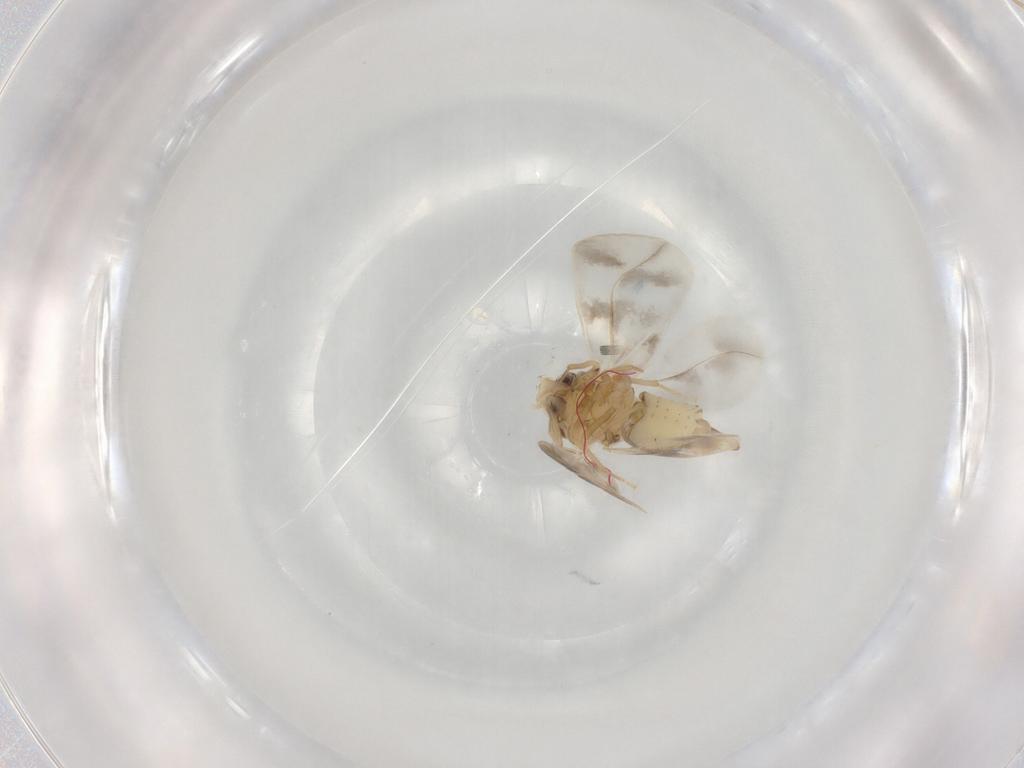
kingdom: Animalia
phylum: Arthropoda
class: Insecta
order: Hemiptera
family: Aleyrodidae
